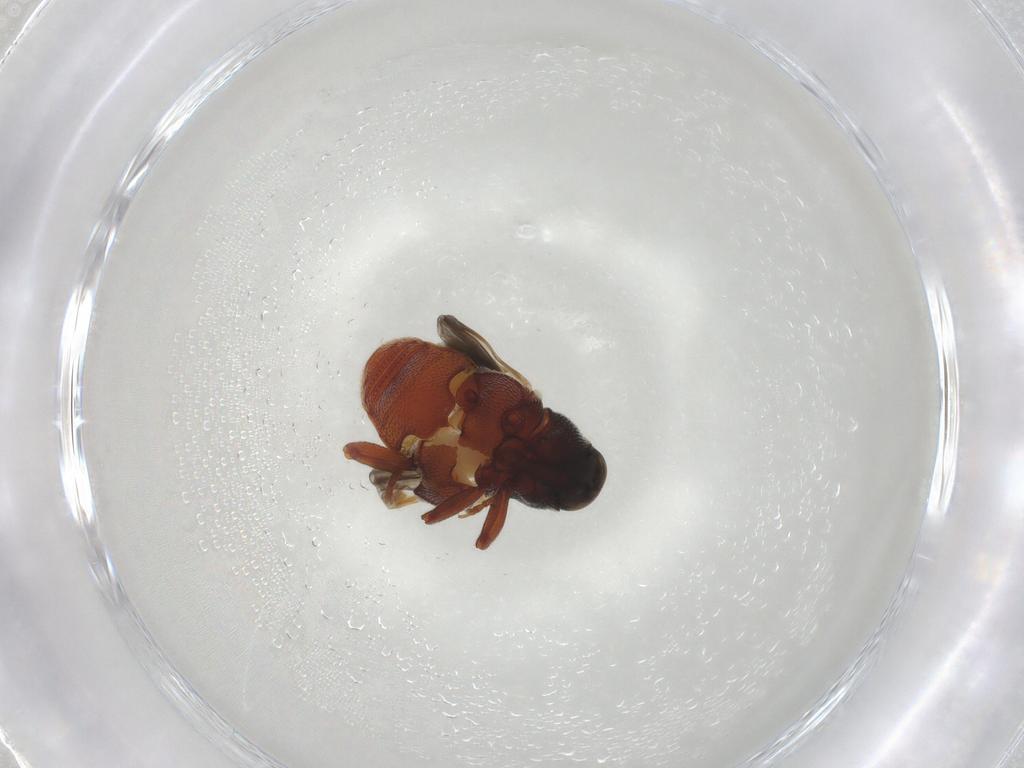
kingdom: Animalia
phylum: Arthropoda
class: Insecta
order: Coleoptera
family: Curculionidae
